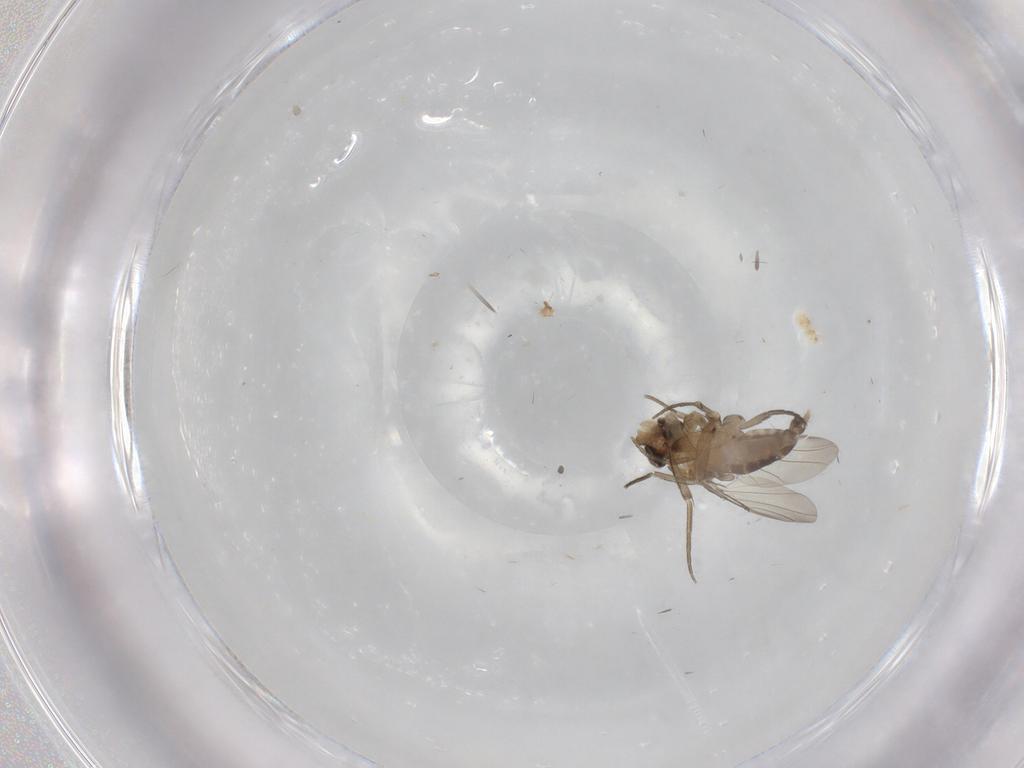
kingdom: Animalia
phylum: Arthropoda
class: Insecta
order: Diptera
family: Phoridae
